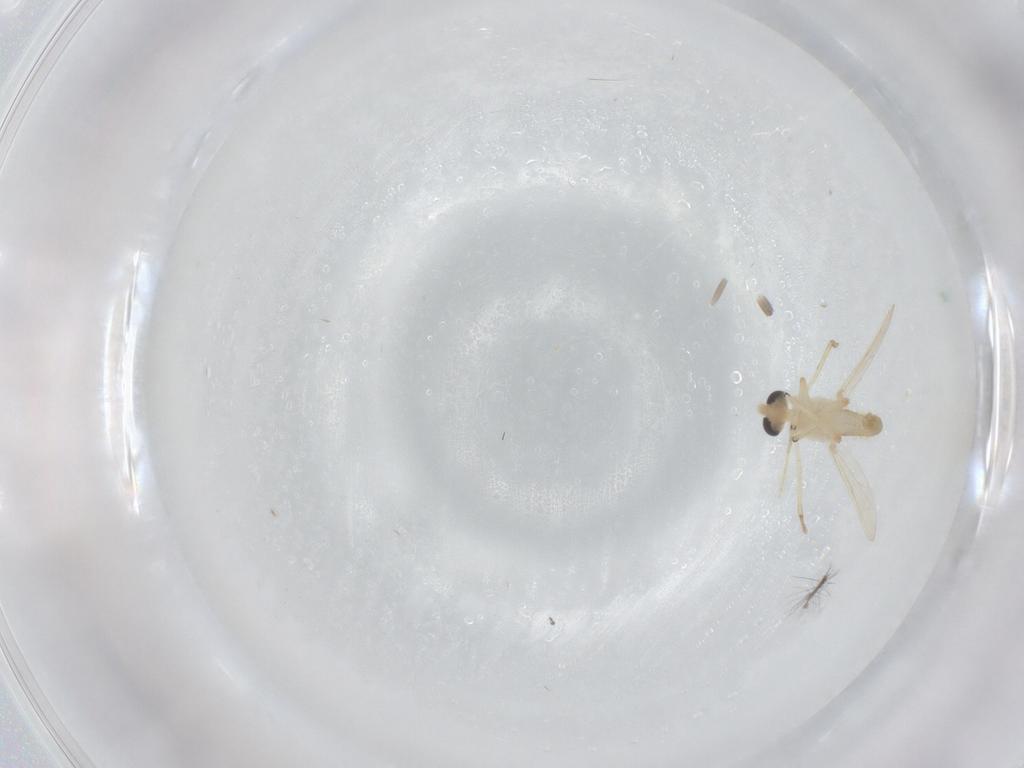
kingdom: Animalia
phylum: Arthropoda
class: Insecta
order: Diptera
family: Chironomidae
